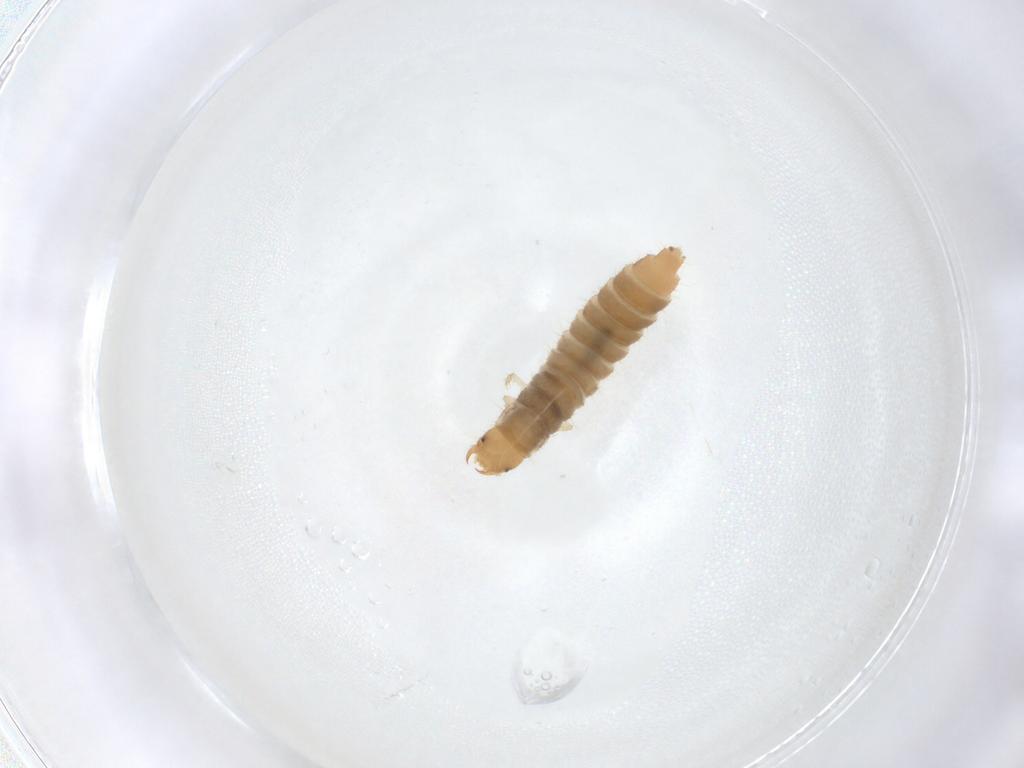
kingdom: Animalia
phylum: Arthropoda
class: Insecta
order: Coleoptera
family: Staphylinidae
